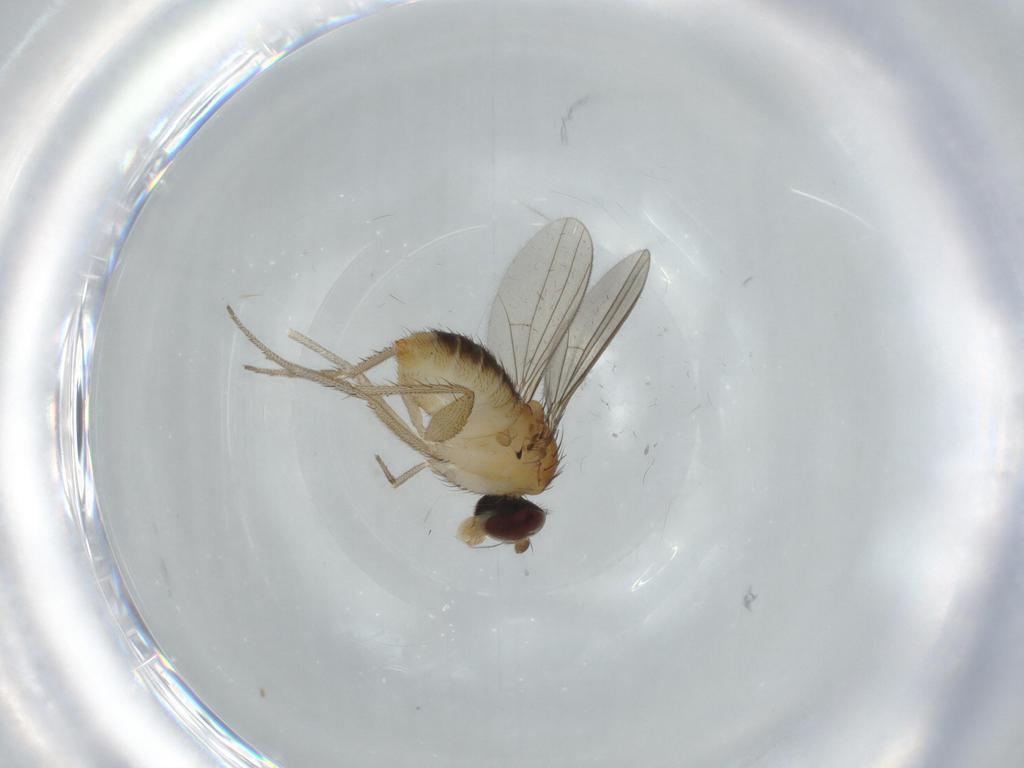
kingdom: Animalia
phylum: Arthropoda
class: Insecta
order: Diptera
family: Dolichopodidae
